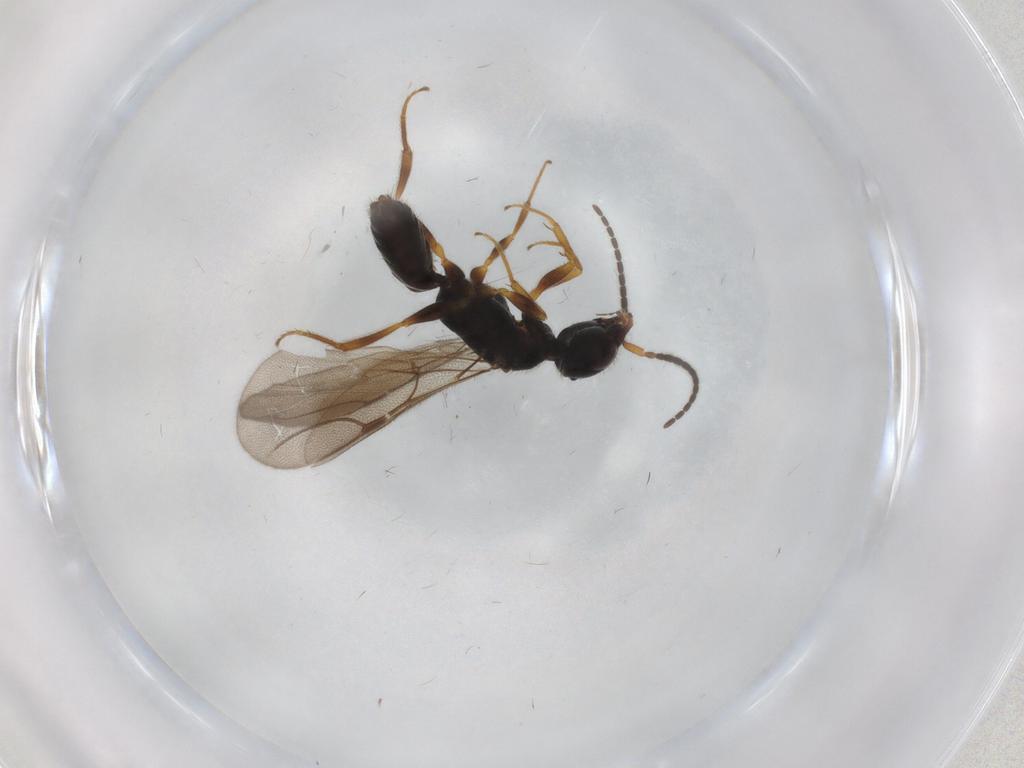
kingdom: Animalia
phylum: Arthropoda
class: Insecta
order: Hymenoptera
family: Bethylidae
